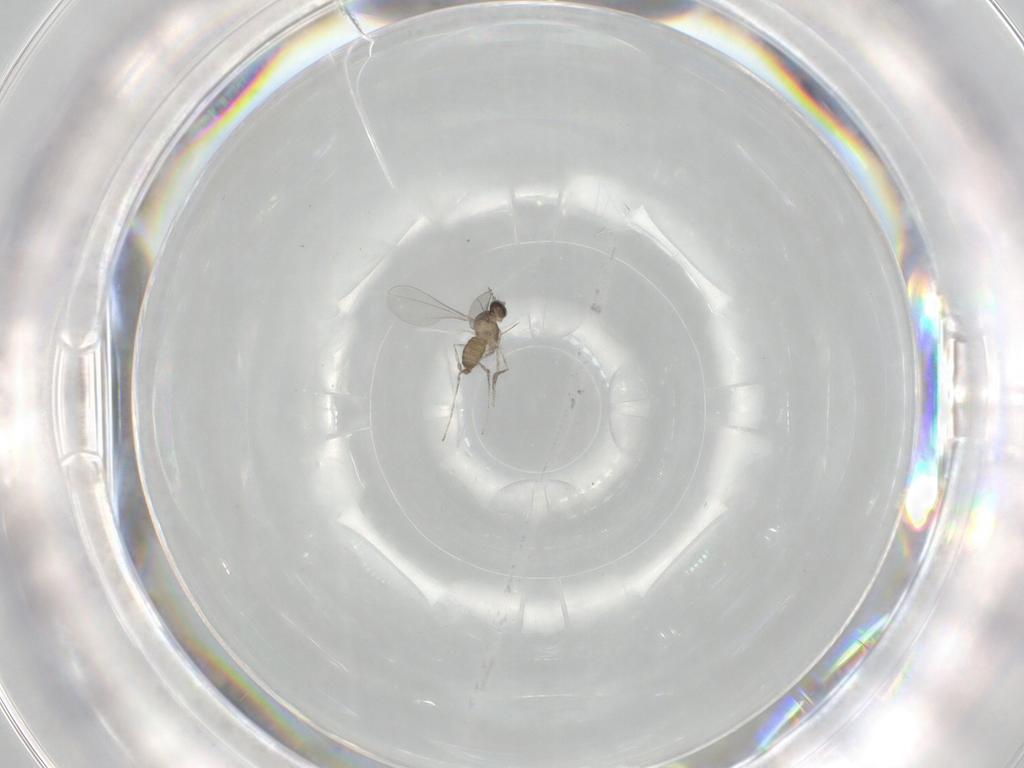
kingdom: Animalia
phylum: Arthropoda
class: Insecta
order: Diptera
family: Cecidomyiidae
